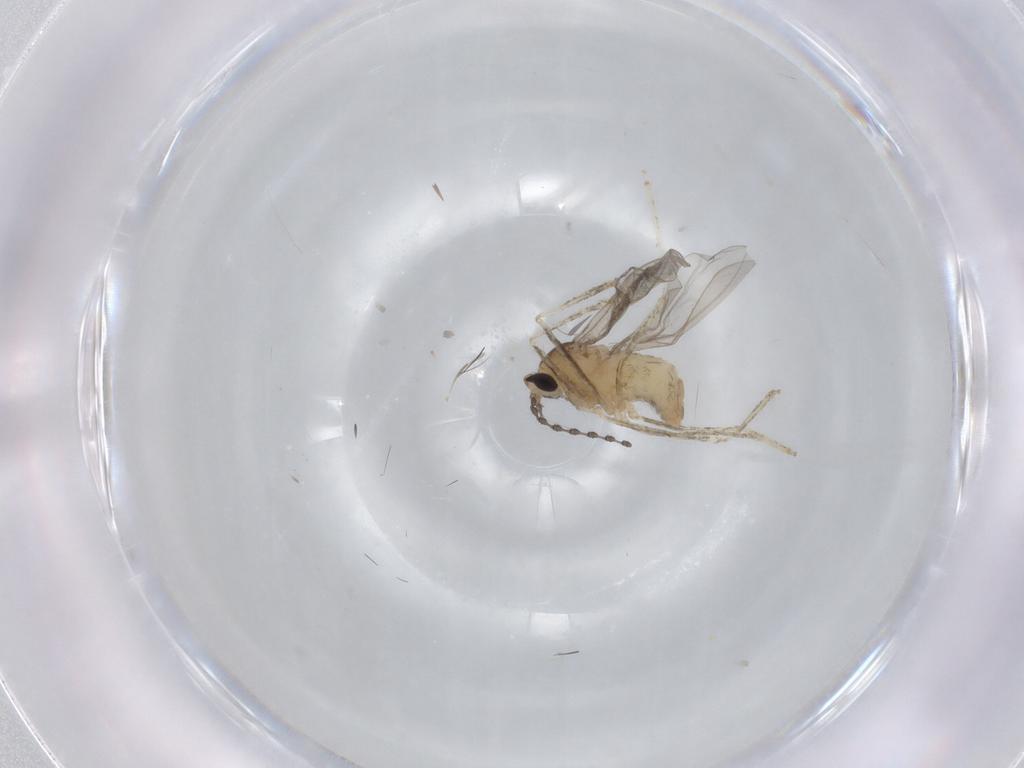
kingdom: Animalia
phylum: Arthropoda
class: Insecta
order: Diptera
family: Cecidomyiidae
